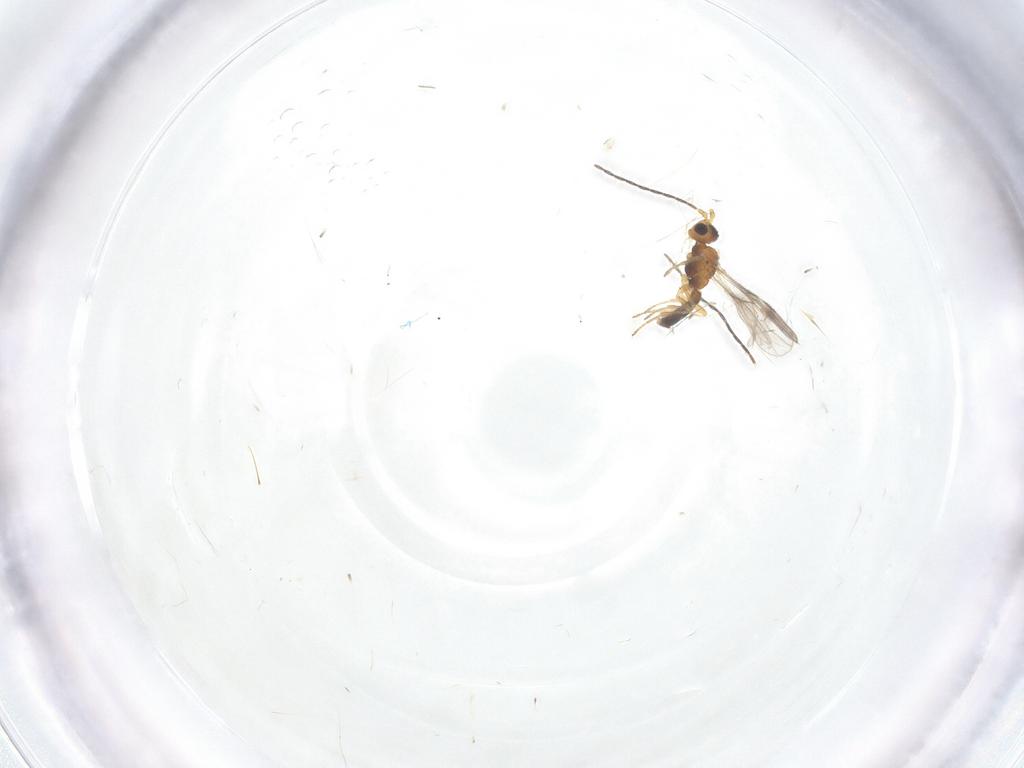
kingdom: Animalia
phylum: Arthropoda
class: Insecta
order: Hymenoptera
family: Braconidae
